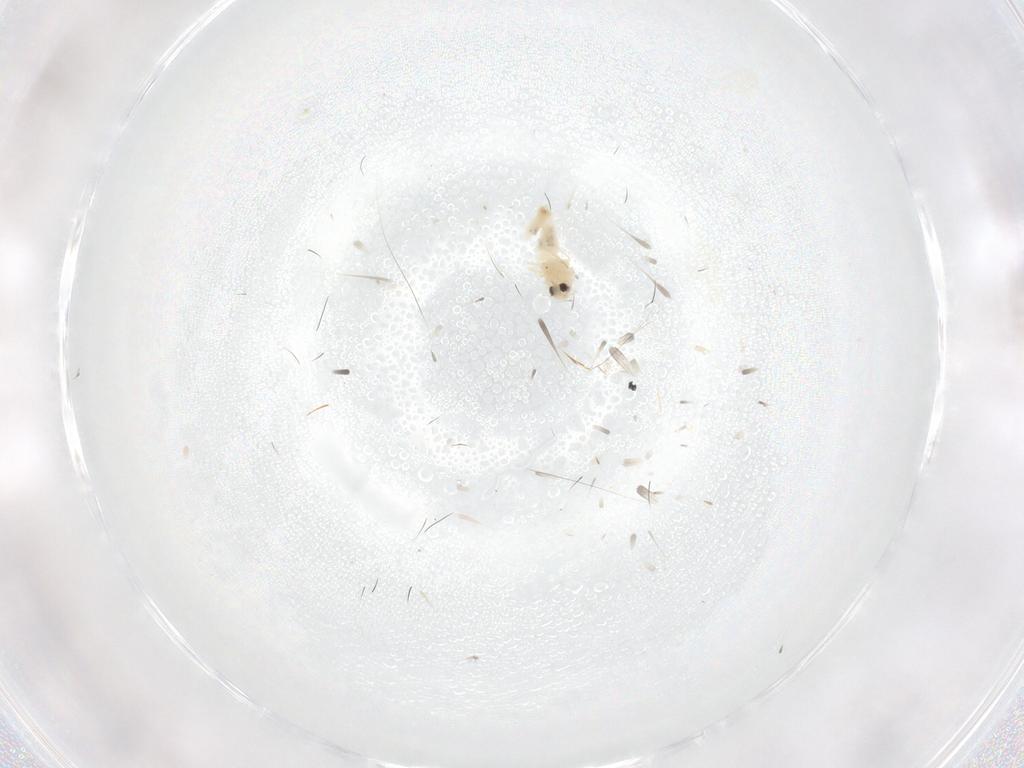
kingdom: Animalia
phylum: Arthropoda
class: Insecta
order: Hemiptera
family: Aleyrodidae
